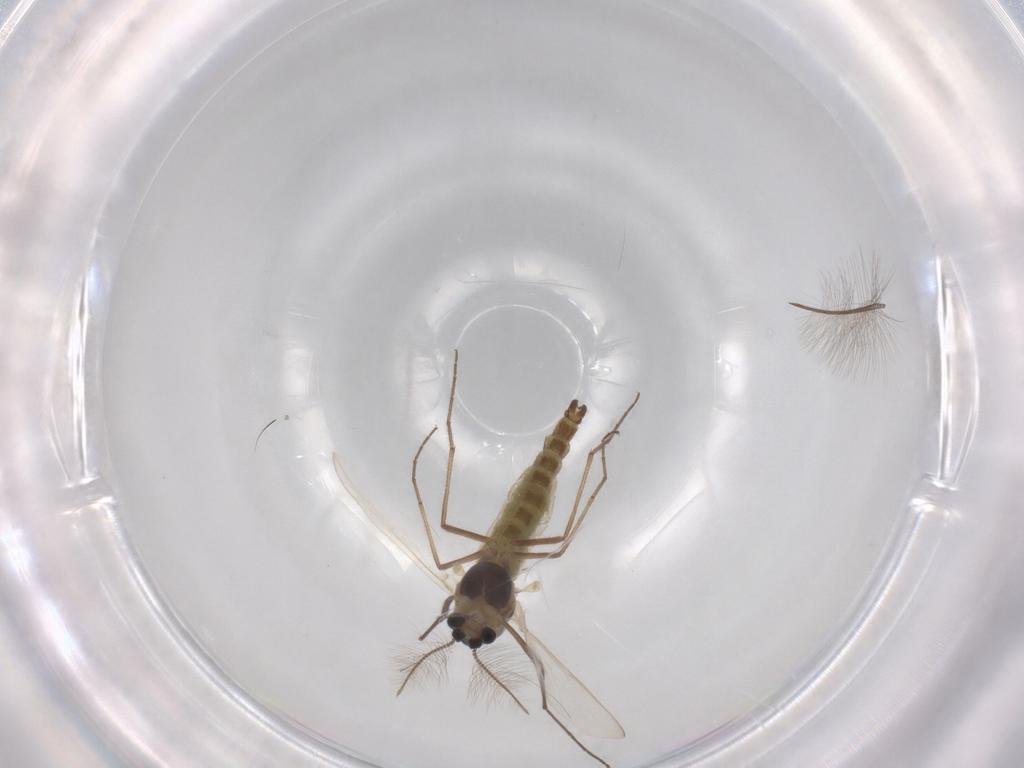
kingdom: Animalia
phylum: Arthropoda
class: Insecta
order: Diptera
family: Chironomidae
